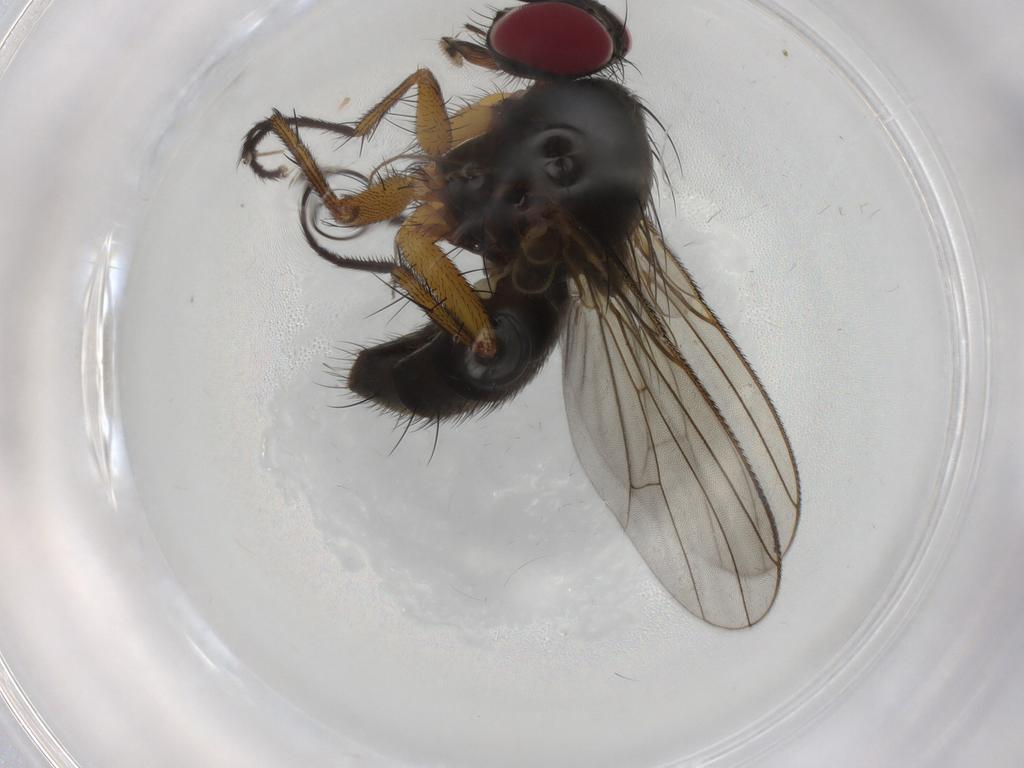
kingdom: Animalia
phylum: Arthropoda
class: Insecta
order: Diptera
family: Muscidae
